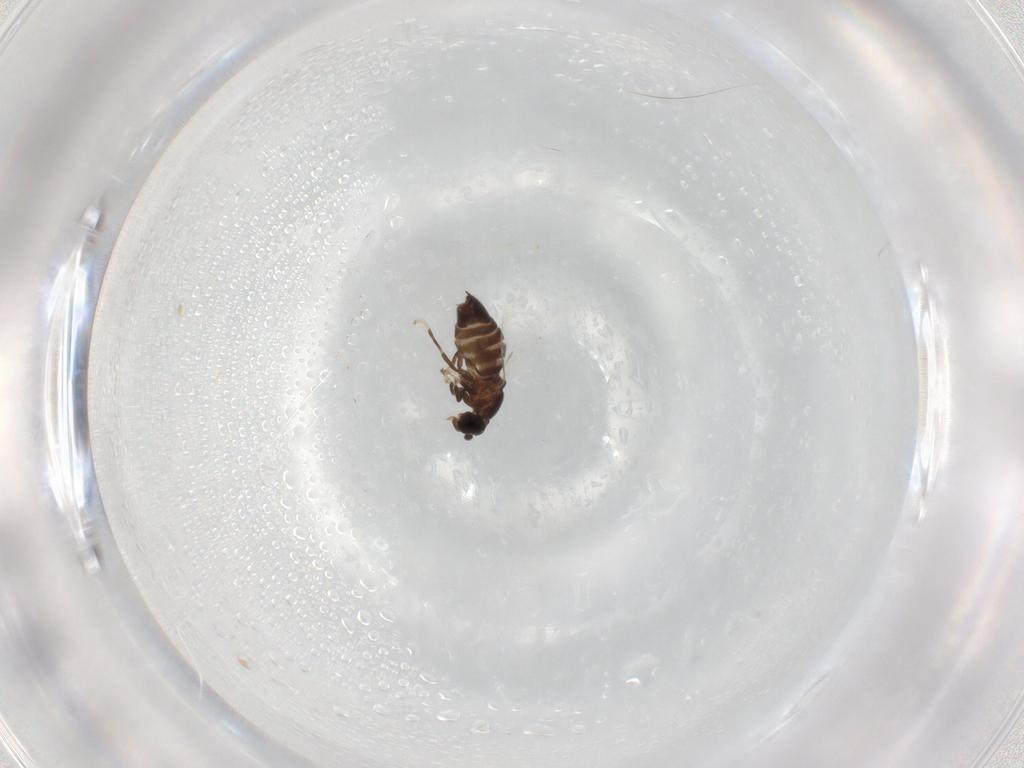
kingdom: Animalia
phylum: Arthropoda
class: Insecta
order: Diptera
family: Scatopsidae
